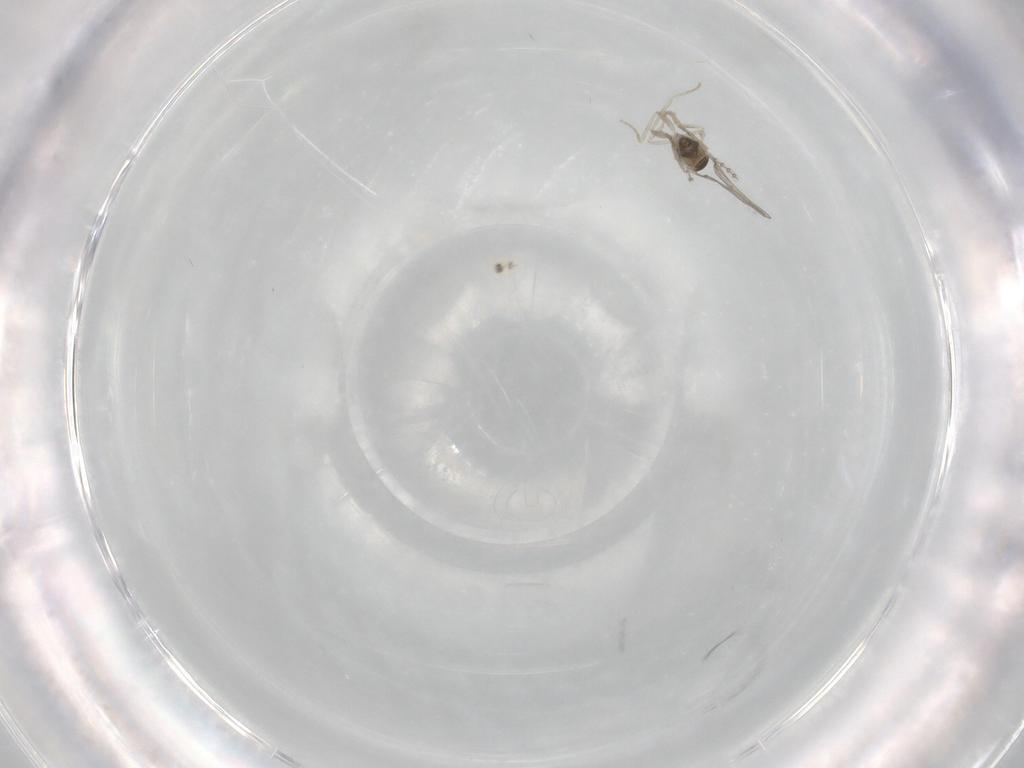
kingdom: Animalia
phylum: Arthropoda
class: Insecta
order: Diptera
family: Cecidomyiidae
